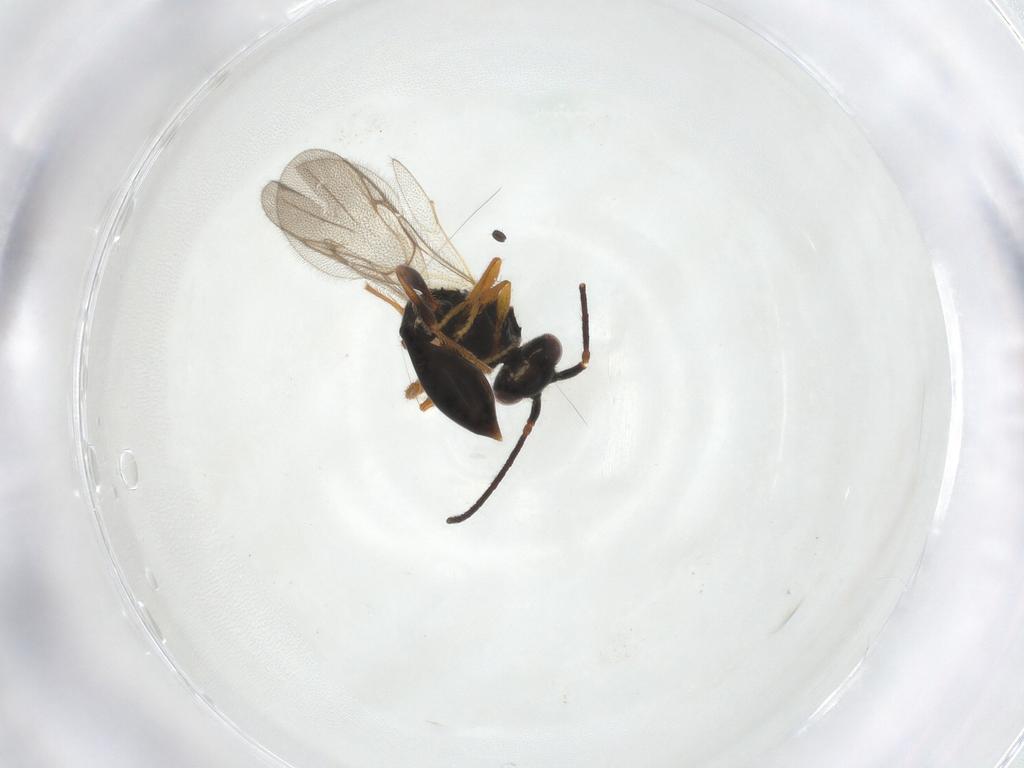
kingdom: Animalia
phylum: Arthropoda
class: Insecta
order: Hymenoptera
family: Diapriidae
